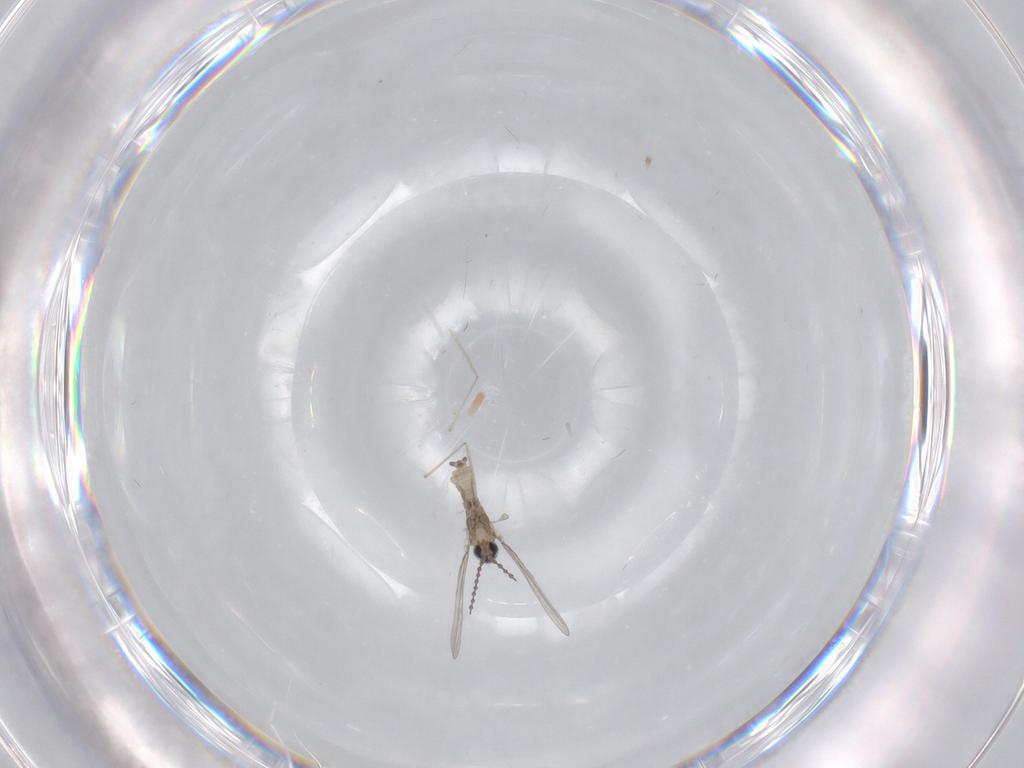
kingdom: Animalia
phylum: Arthropoda
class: Insecta
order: Diptera
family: Cecidomyiidae
